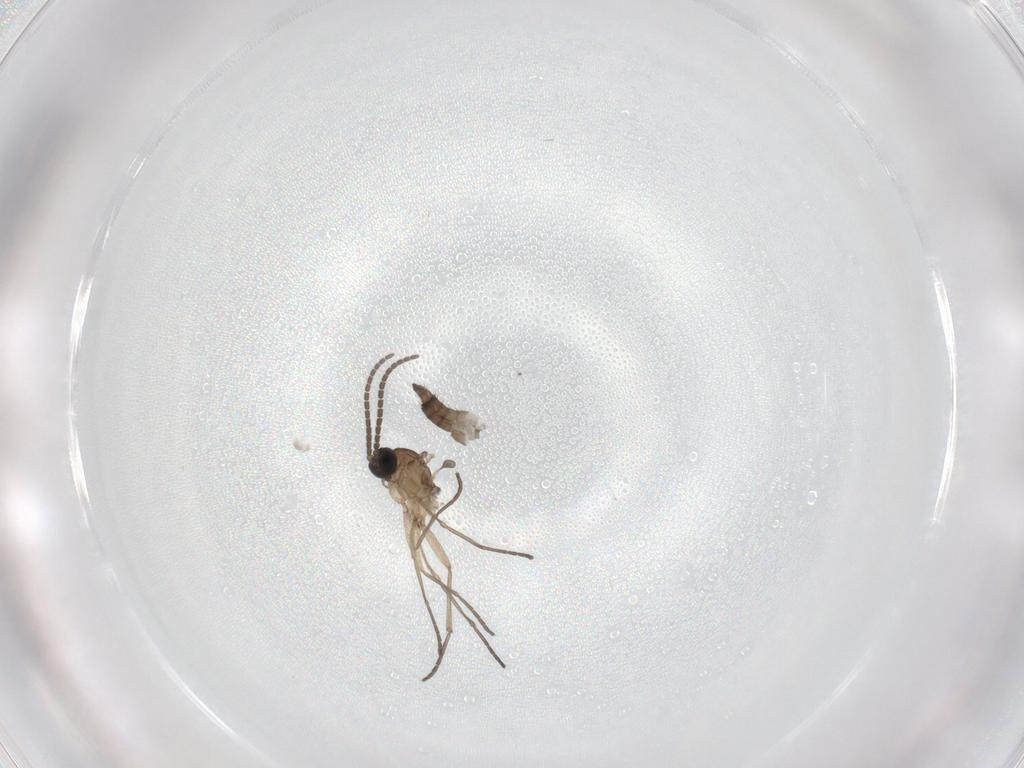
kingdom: Animalia
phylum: Arthropoda
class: Insecta
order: Diptera
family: Sciaridae
